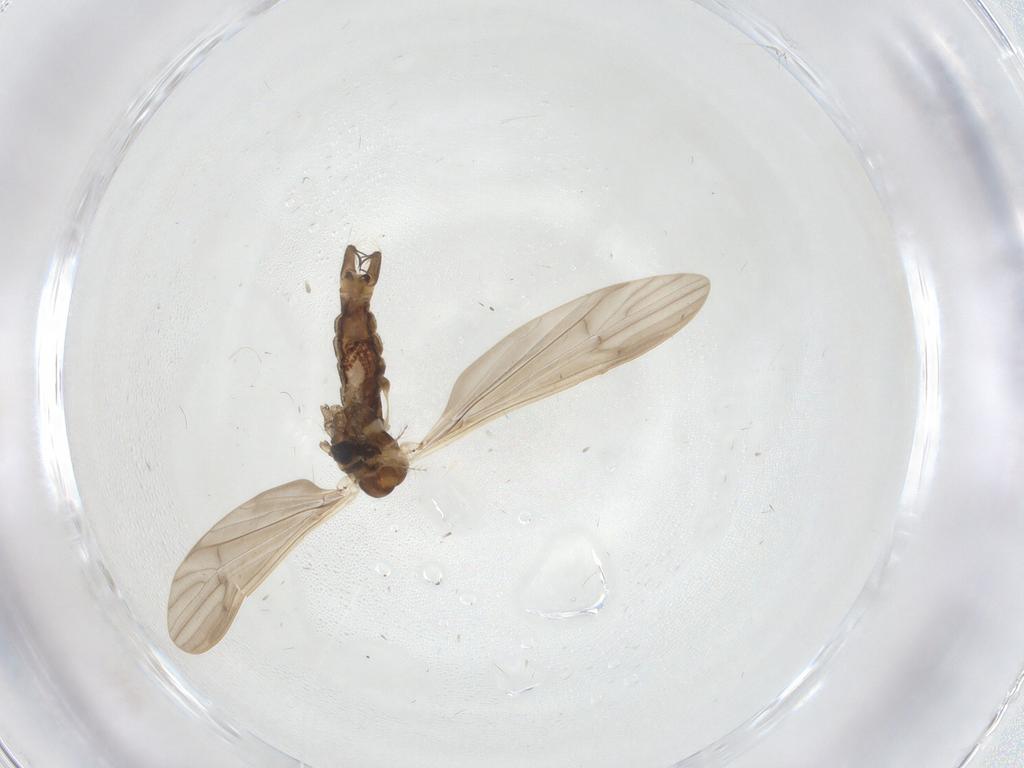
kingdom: Animalia
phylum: Arthropoda
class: Insecta
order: Diptera
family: Limoniidae
